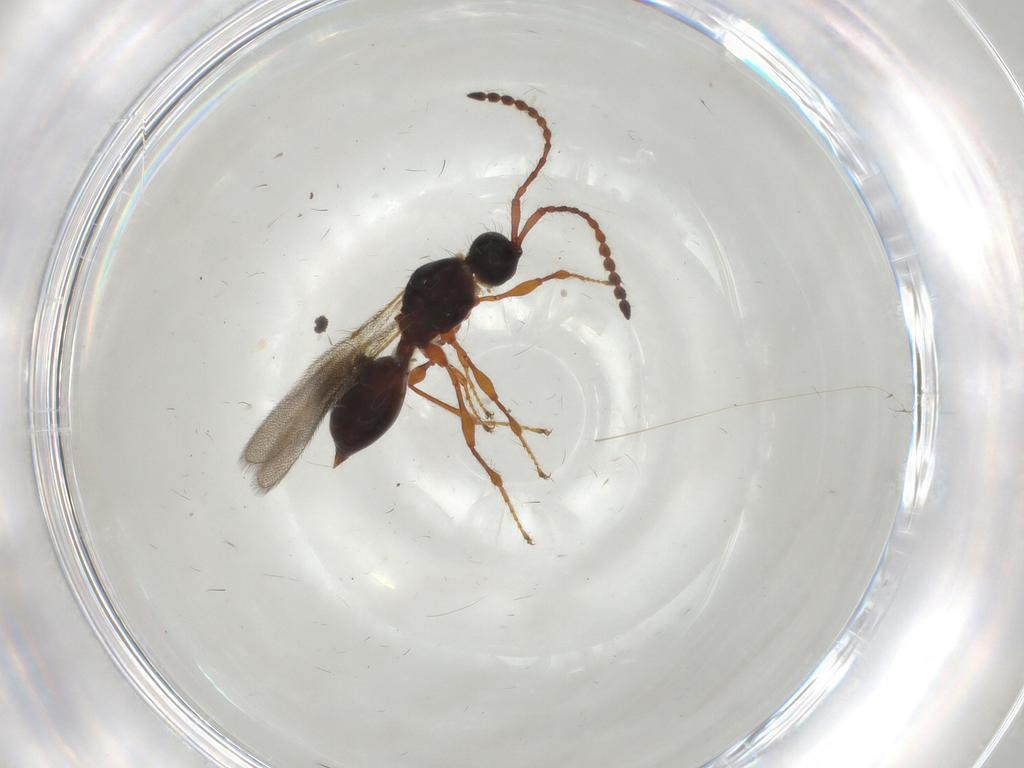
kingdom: Animalia
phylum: Arthropoda
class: Insecta
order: Hymenoptera
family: Diapriidae
